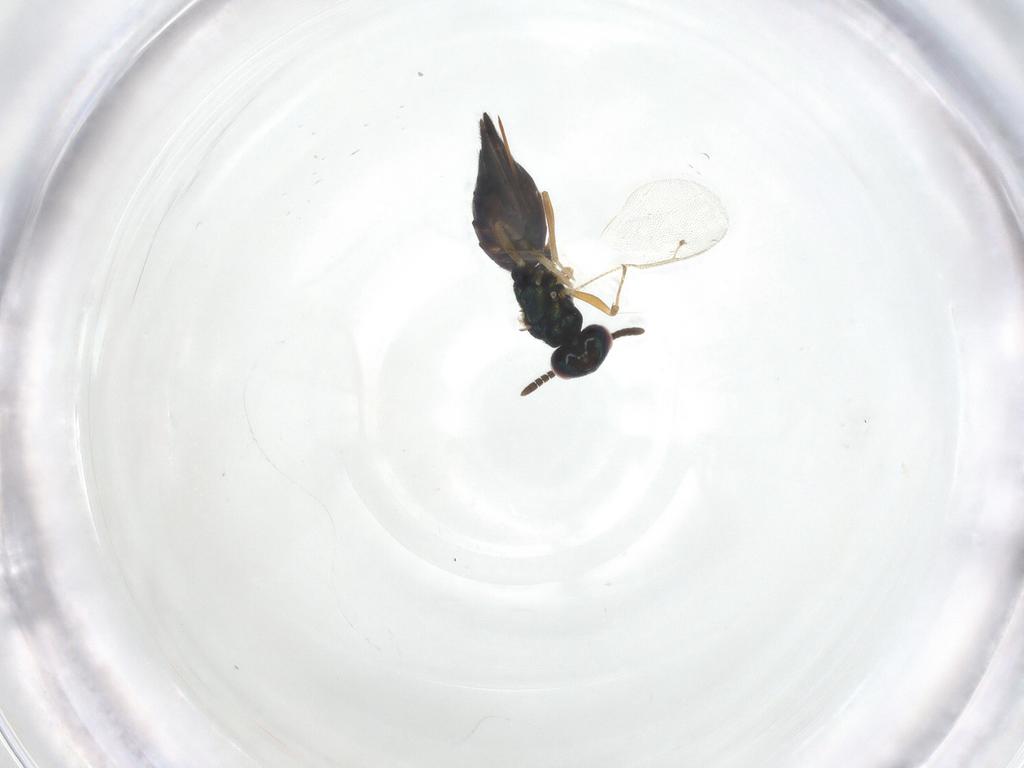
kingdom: Animalia
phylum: Arthropoda
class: Insecta
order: Hymenoptera
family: Pteromalidae
